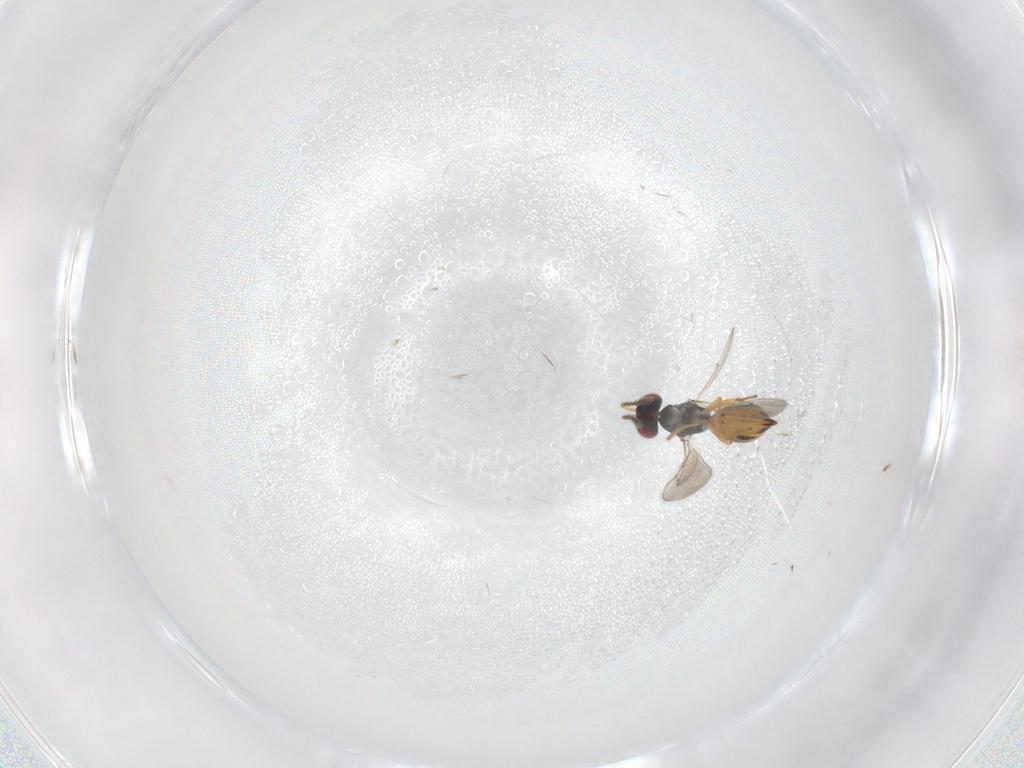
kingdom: Animalia
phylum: Arthropoda
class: Insecta
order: Hymenoptera
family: Eulophidae
